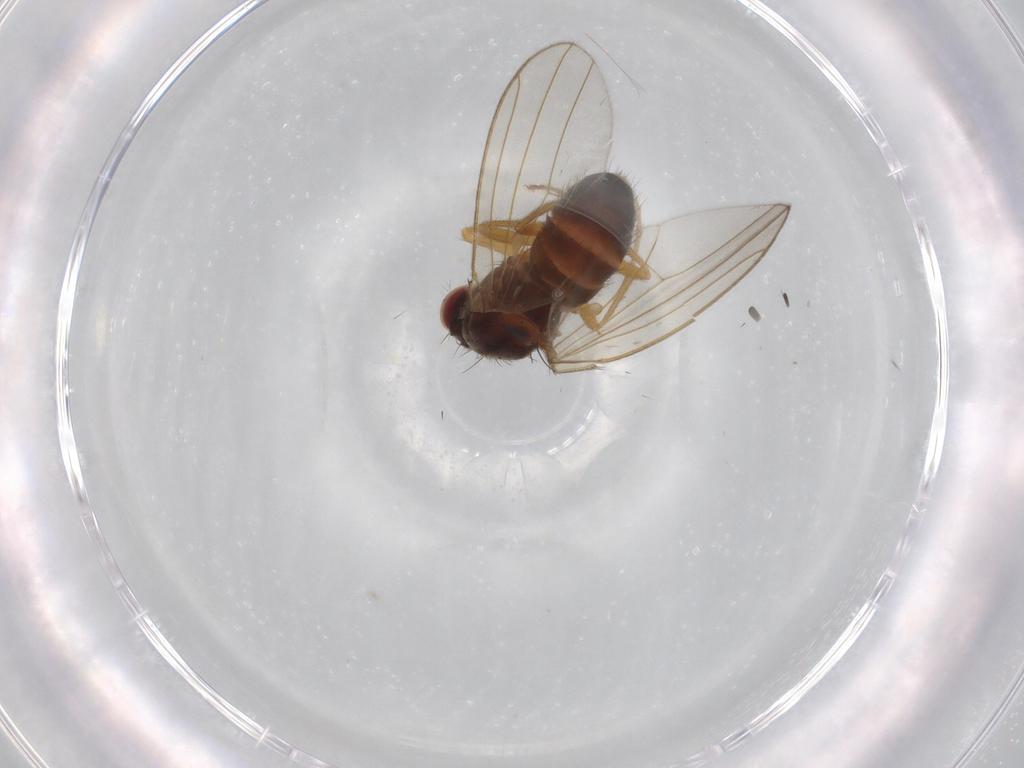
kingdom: Animalia
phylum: Arthropoda
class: Insecta
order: Diptera
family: Drosophilidae
